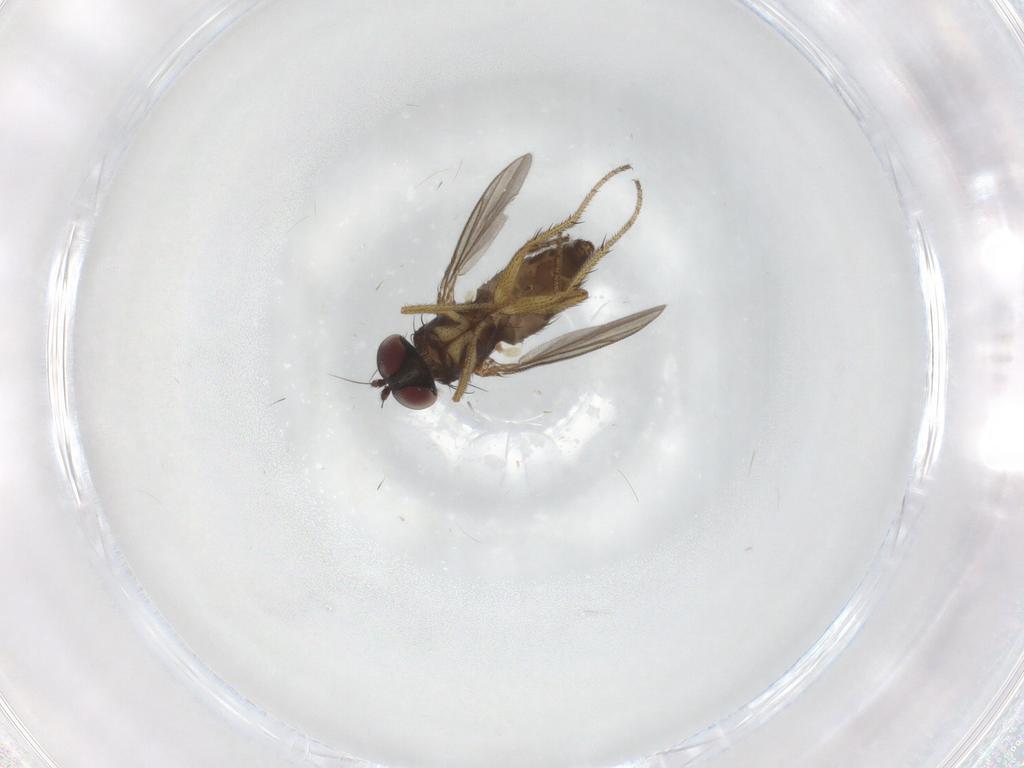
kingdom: Animalia
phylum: Arthropoda
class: Insecta
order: Diptera
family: Dolichopodidae
